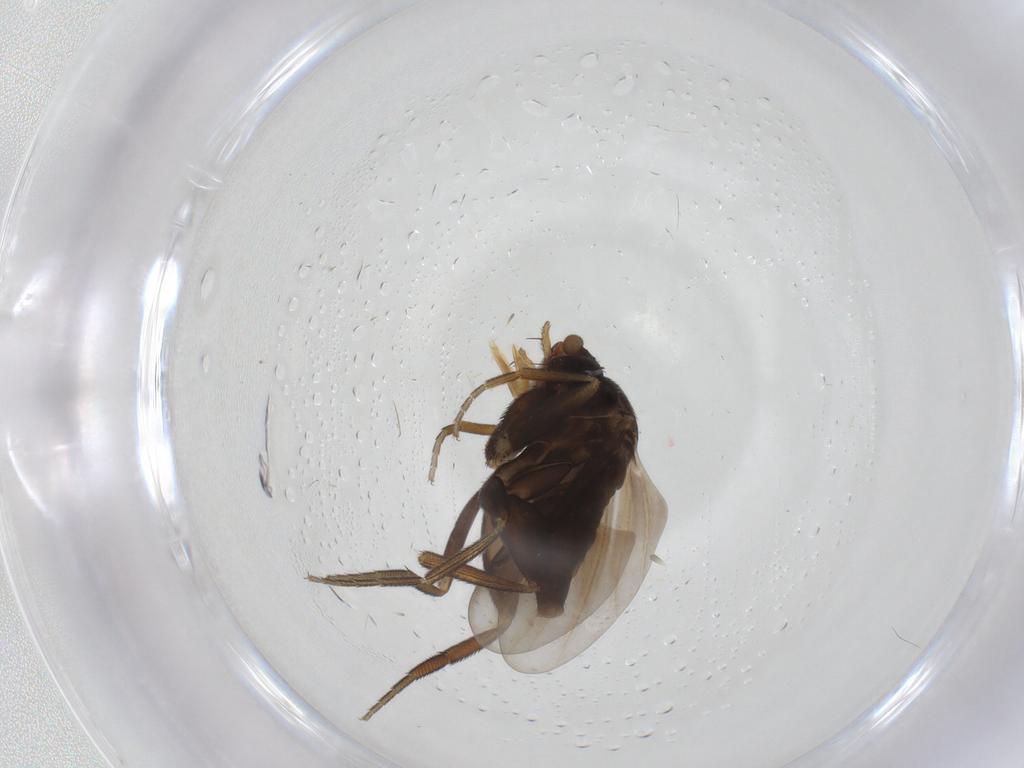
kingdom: Animalia
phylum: Arthropoda
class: Insecta
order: Diptera
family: Phoridae
